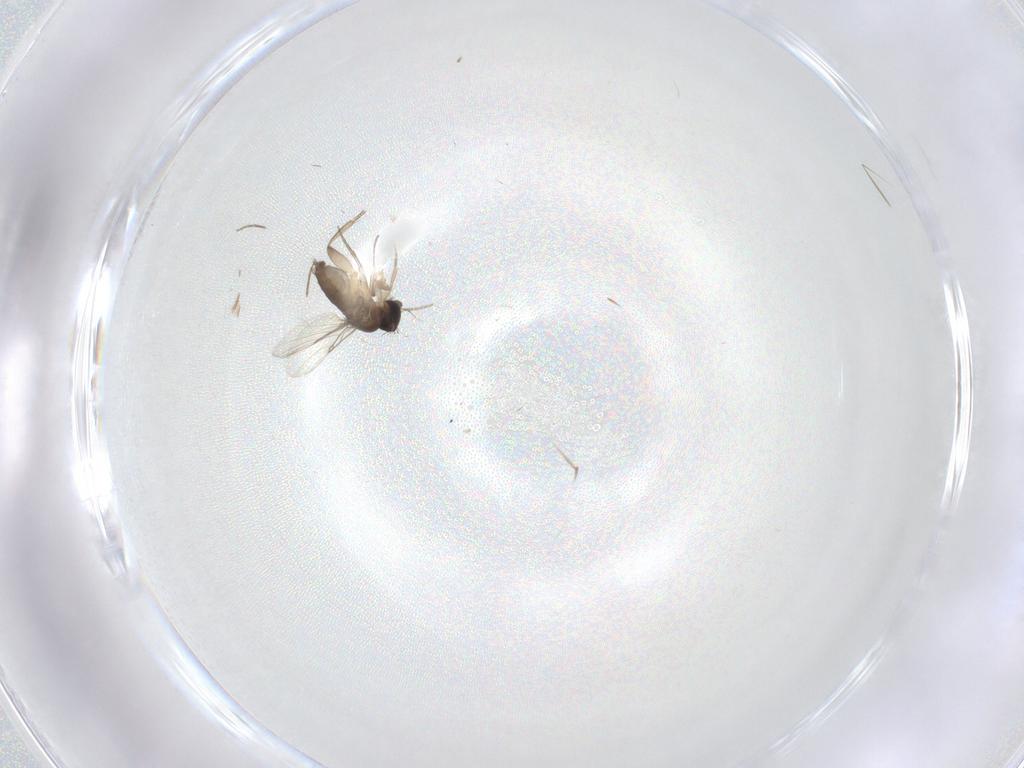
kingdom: Animalia
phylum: Arthropoda
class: Insecta
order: Diptera
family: Phoridae
